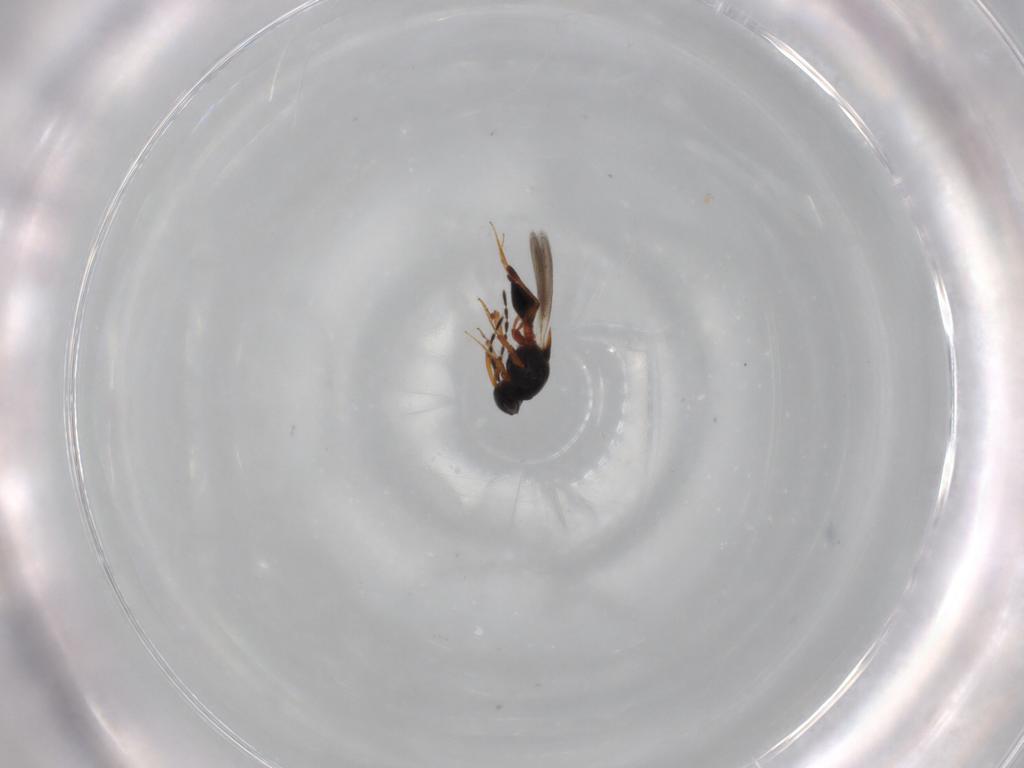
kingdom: Animalia
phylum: Arthropoda
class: Insecta
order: Hymenoptera
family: Platygastridae
